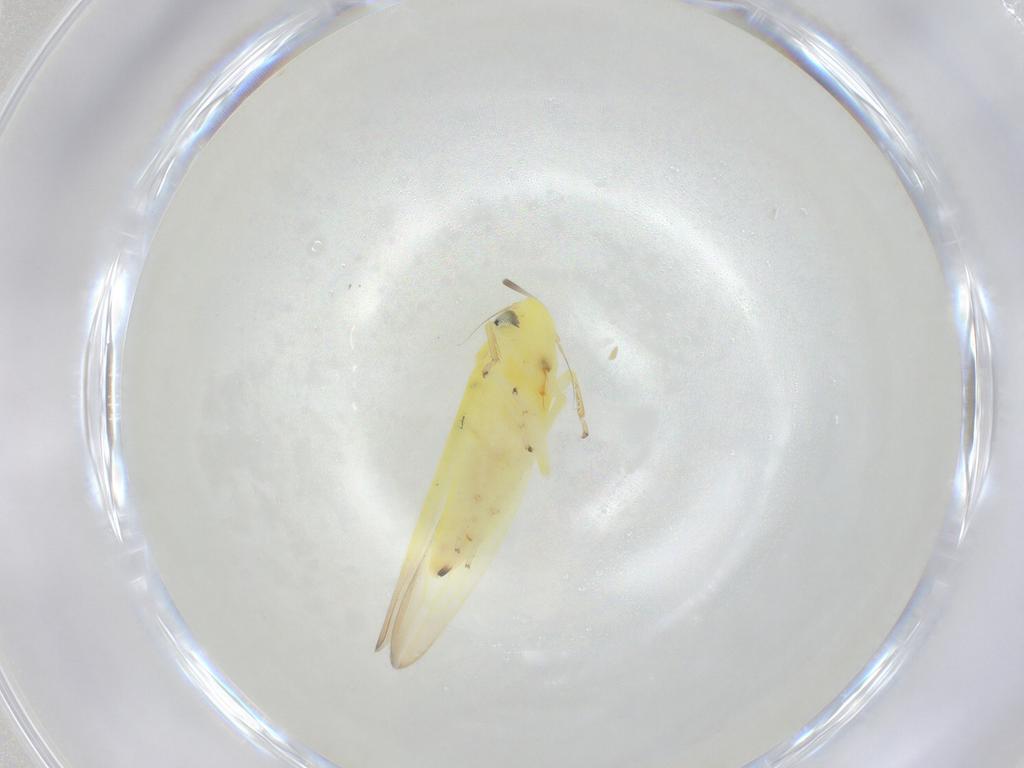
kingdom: Animalia
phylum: Arthropoda
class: Insecta
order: Hemiptera
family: Cicadellidae
